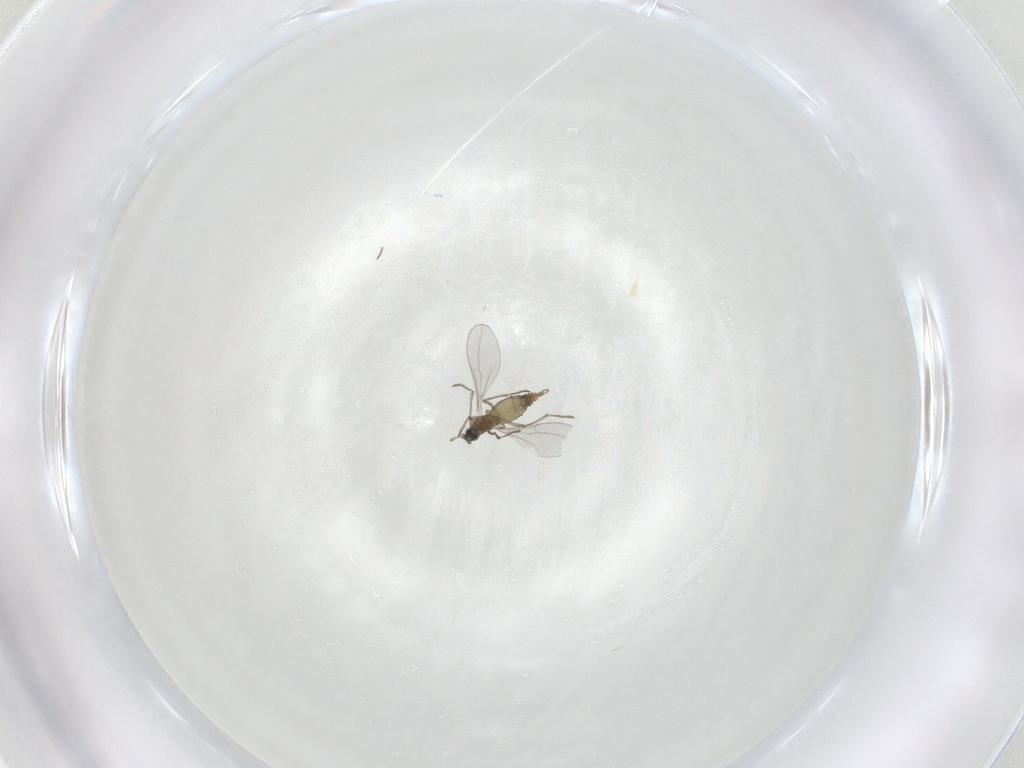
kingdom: Animalia
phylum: Arthropoda
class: Insecta
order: Diptera
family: Cecidomyiidae
